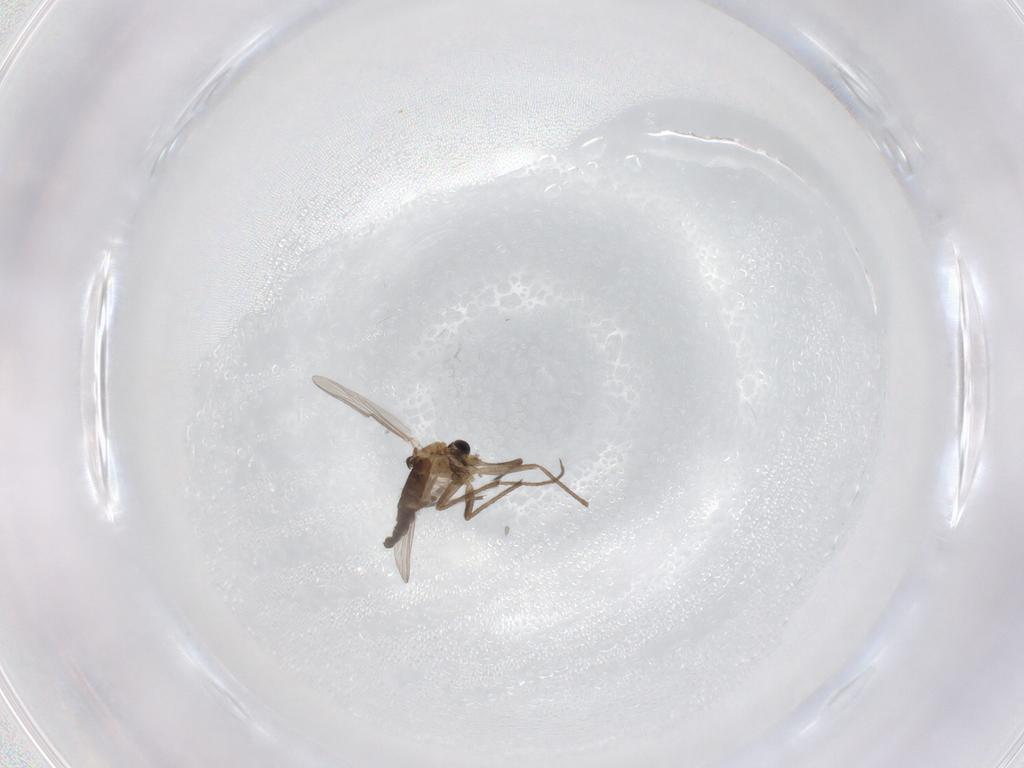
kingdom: Animalia
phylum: Arthropoda
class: Insecta
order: Diptera
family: Chironomidae
